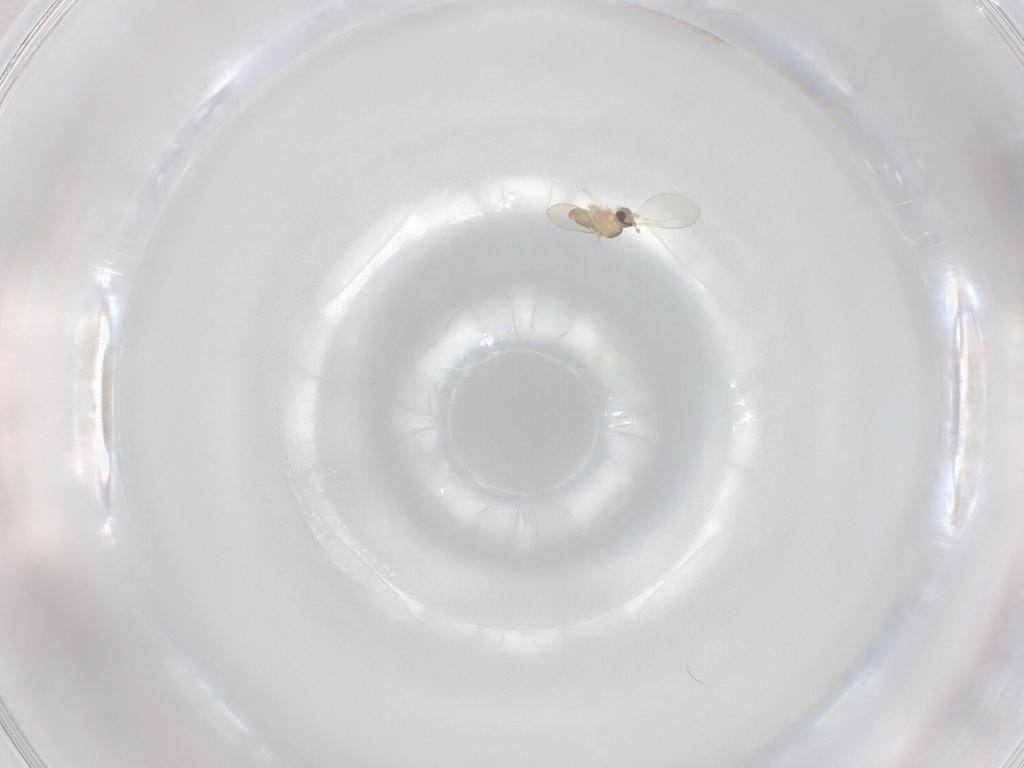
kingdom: Animalia
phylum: Arthropoda
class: Insecta
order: Diptera
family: Cecidomyiidae
